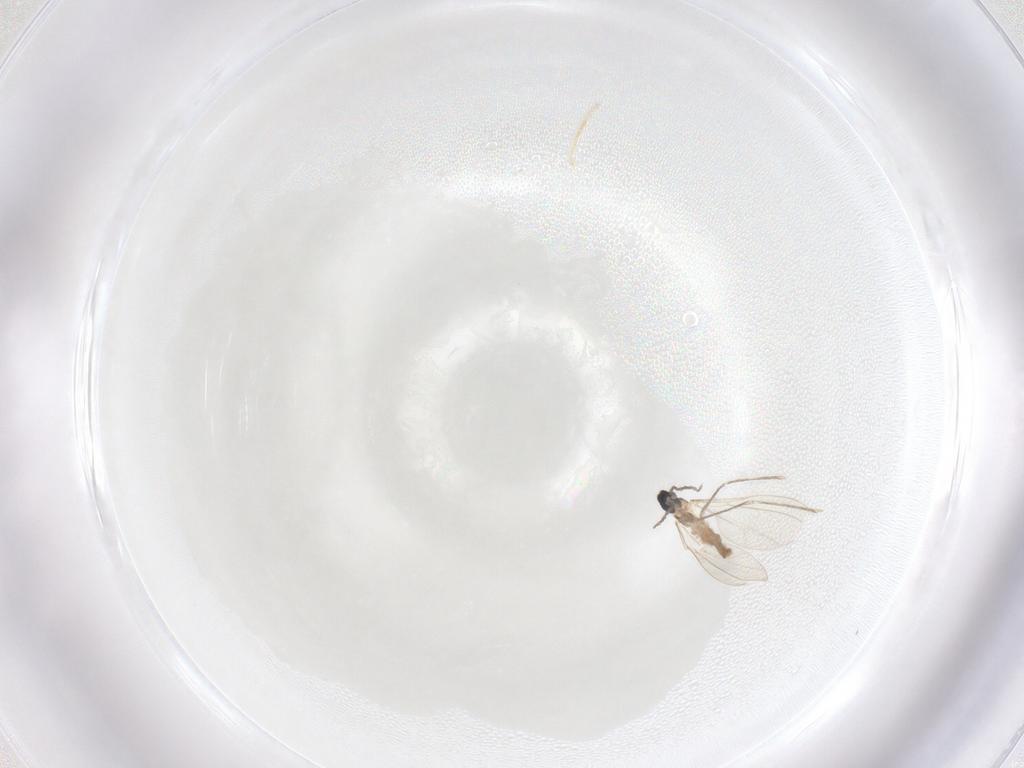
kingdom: Animalia
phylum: Arthropoda
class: Insecta
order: Diptera
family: Cecidomyiidae
